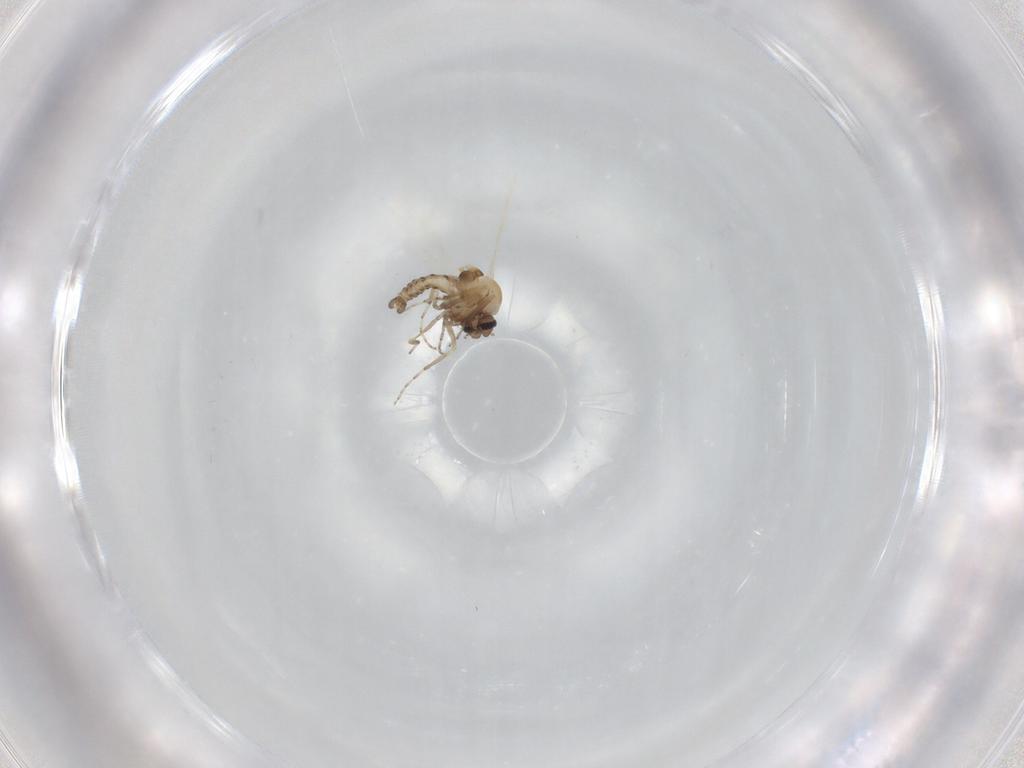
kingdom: Animalia
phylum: Arthropoda
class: Insecta
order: Diptera
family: Ceratopogonidae
